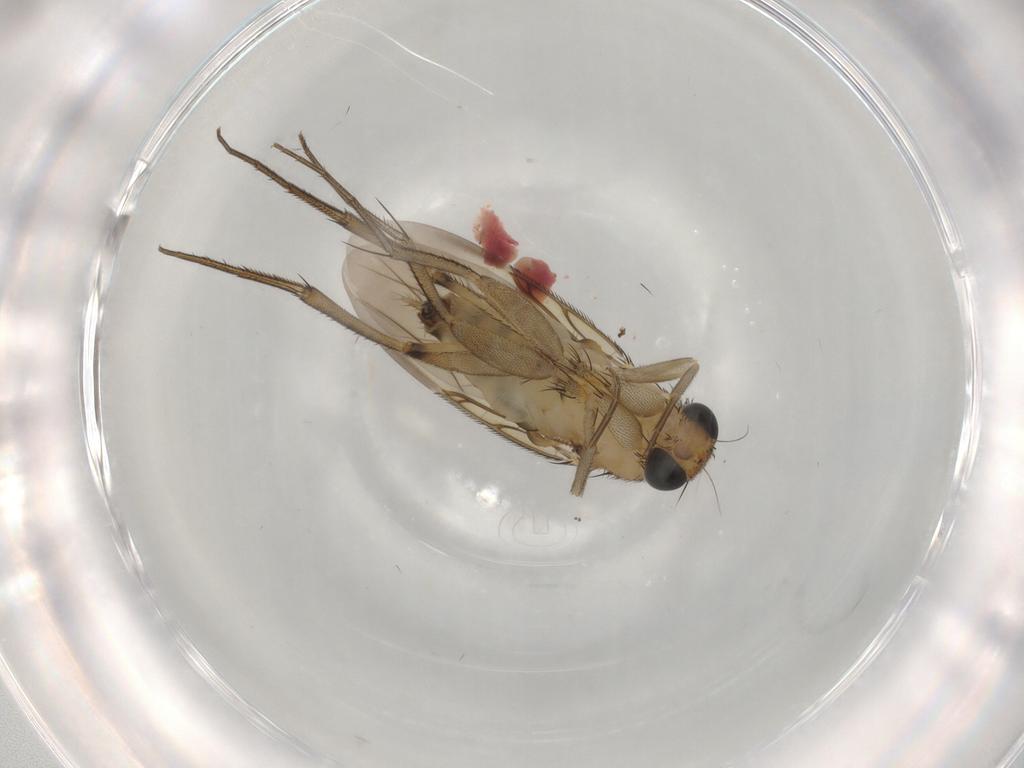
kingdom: Animalia
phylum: Arthropoda
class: Insecta
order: Diptera
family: Phoridae
